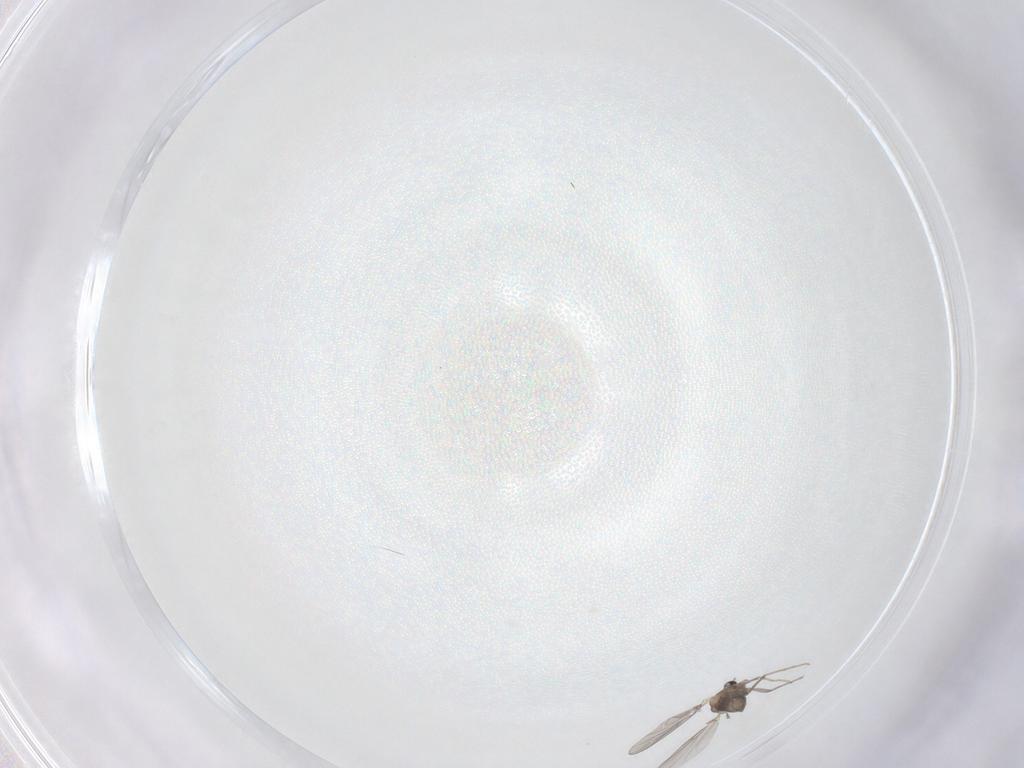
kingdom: Animalia
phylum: Arthropoda
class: Insecta
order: Diptera
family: Chironomidae
